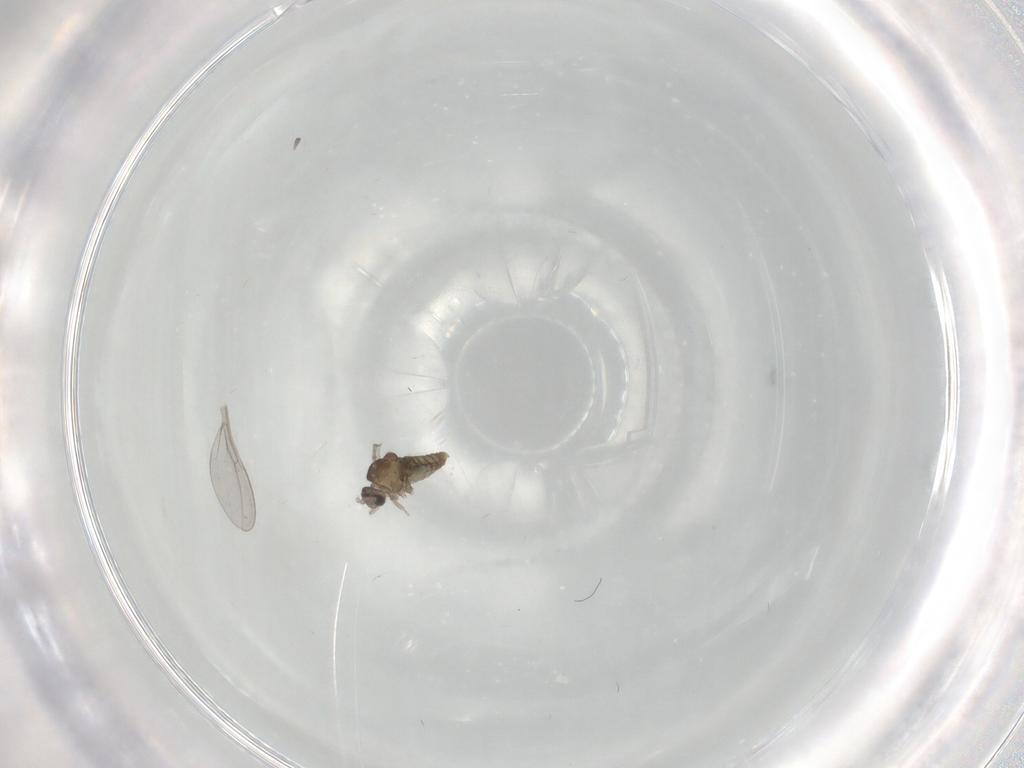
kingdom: Animalia
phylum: Arthropoda
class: Insecta
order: Diptera
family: Cecidomyiidae
